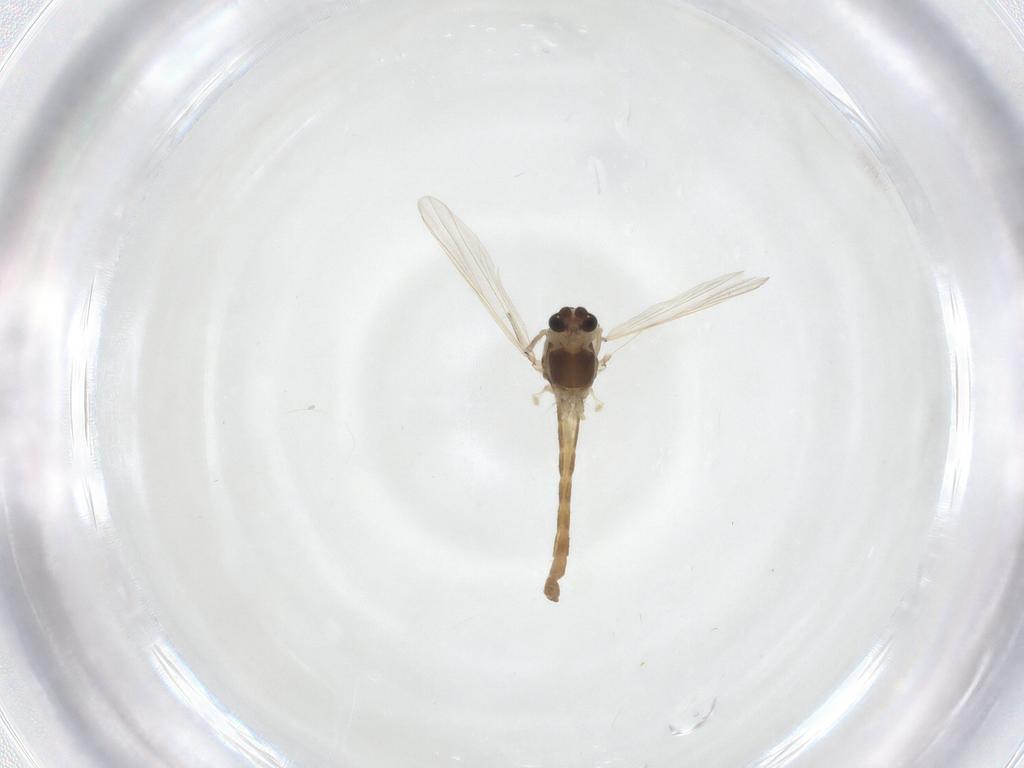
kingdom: Animalia
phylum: Arthropoda
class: Insecta
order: Diptera
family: Chironomidae
